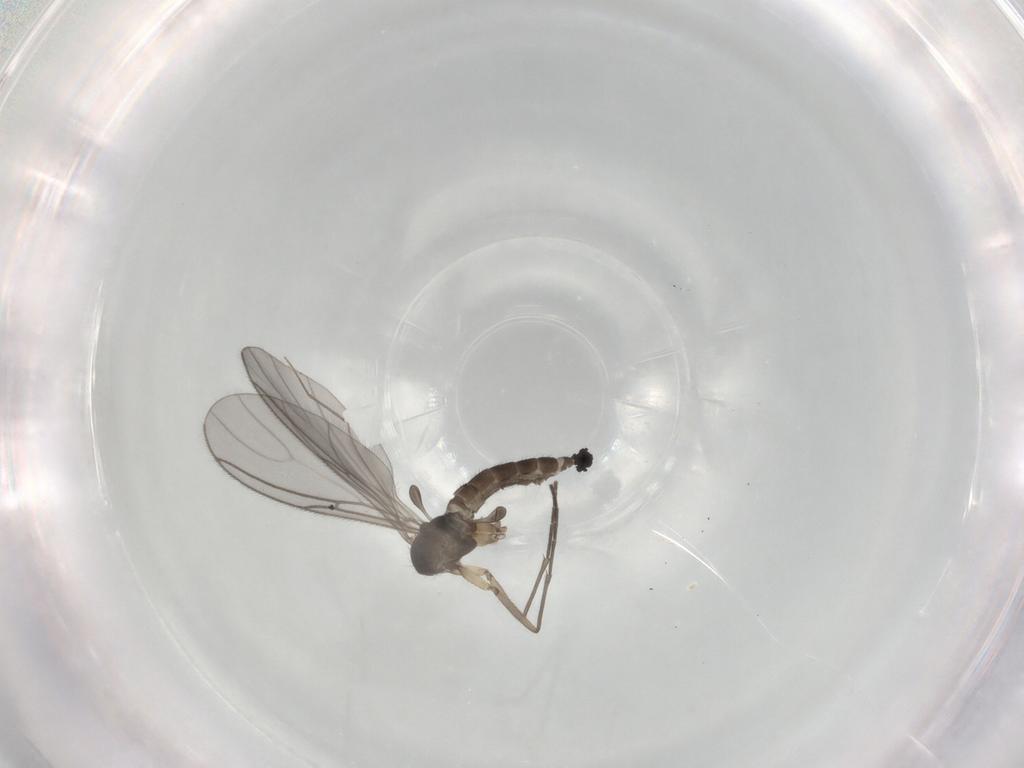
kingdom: Animalia
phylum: Arthropoda
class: Insecta
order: Diptera
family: Sciaridae
